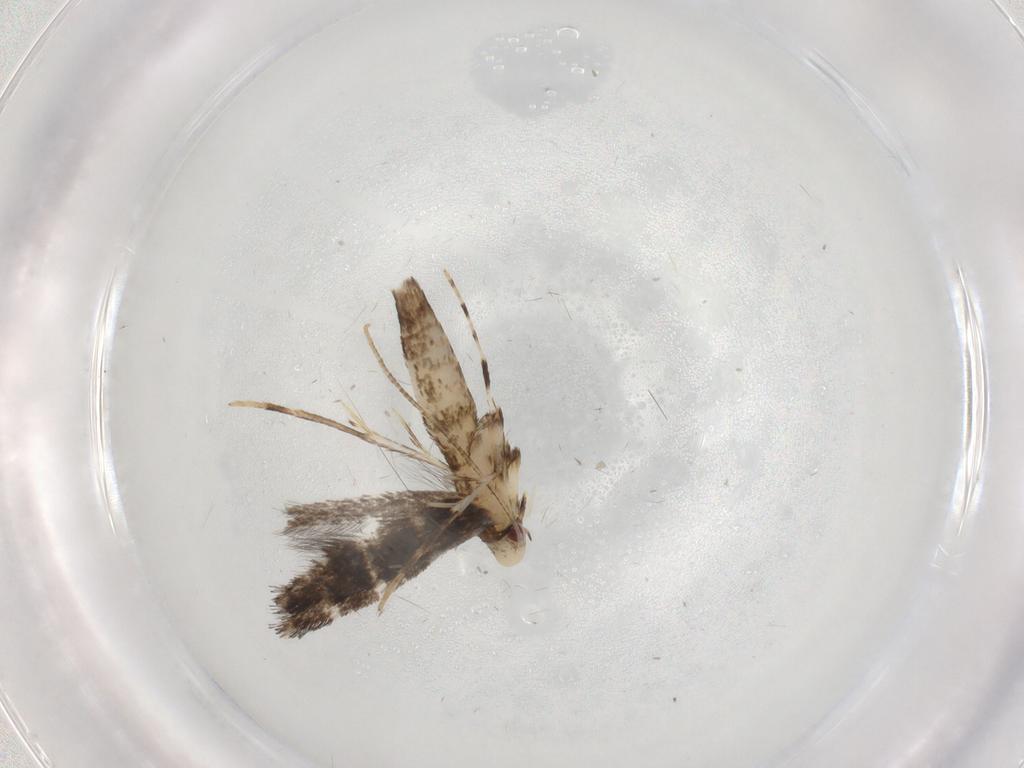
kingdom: Animalia
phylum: Arthropoda
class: Insecta
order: Lepidoptera
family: Gracillariidae
